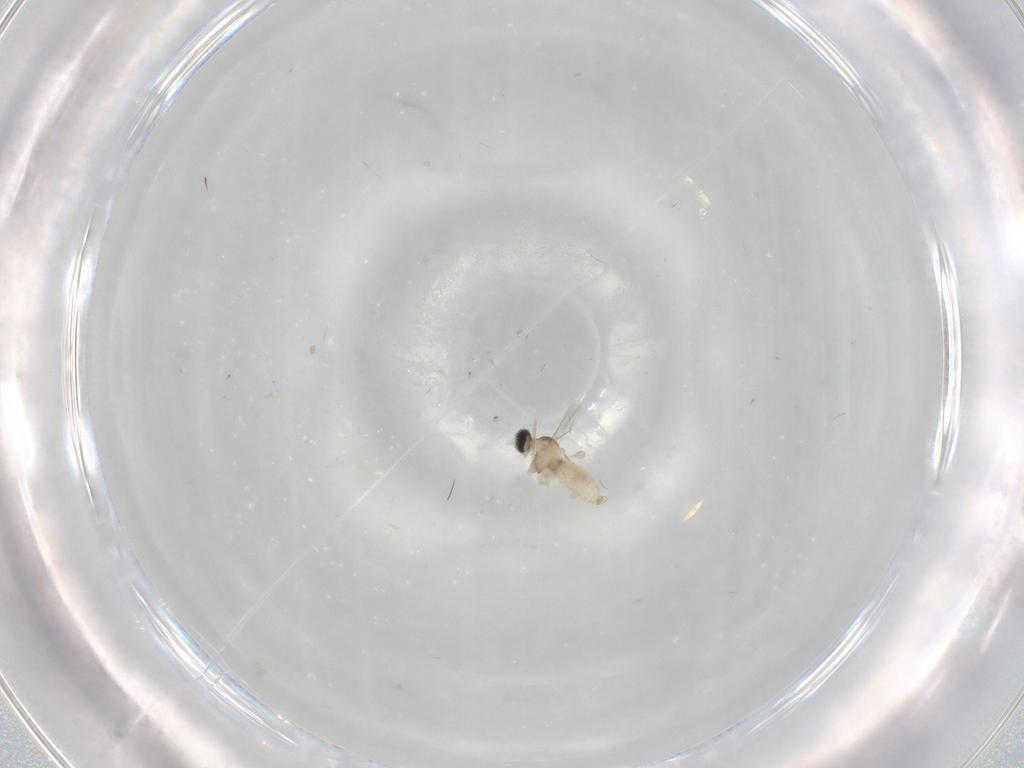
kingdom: Animalia
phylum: Arthropoda
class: Insecta
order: Diptera
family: Cecidomyiidae
